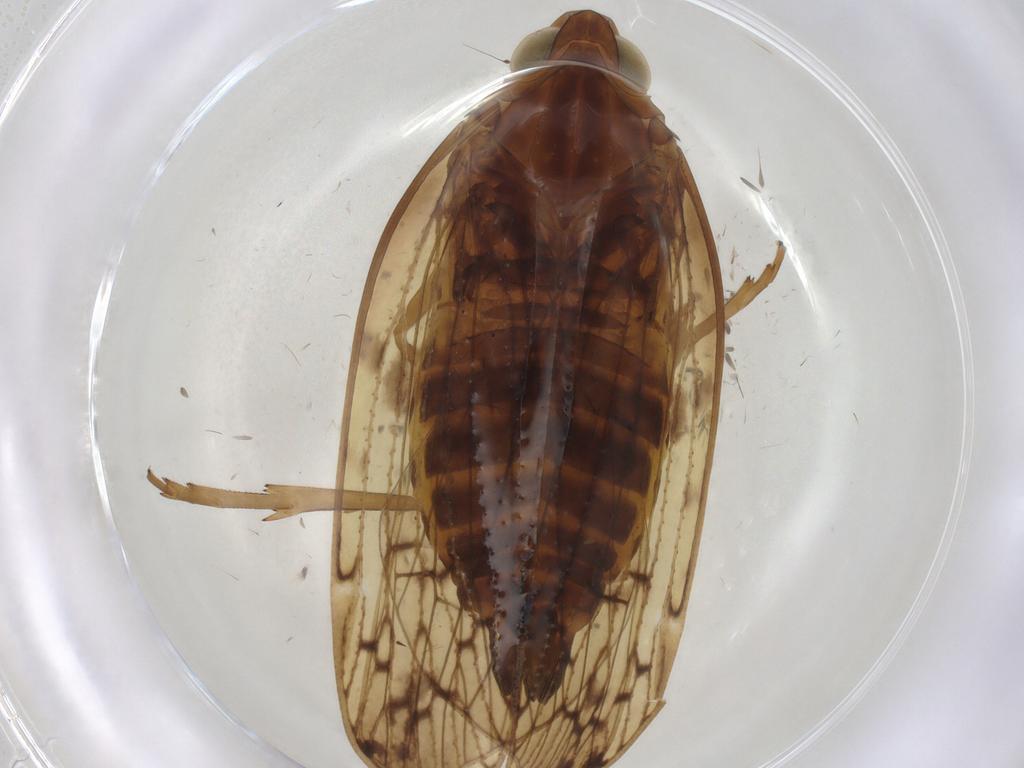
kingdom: Animalia
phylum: Arthropoda
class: Insecta
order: Hemiptera
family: Cixiidae
